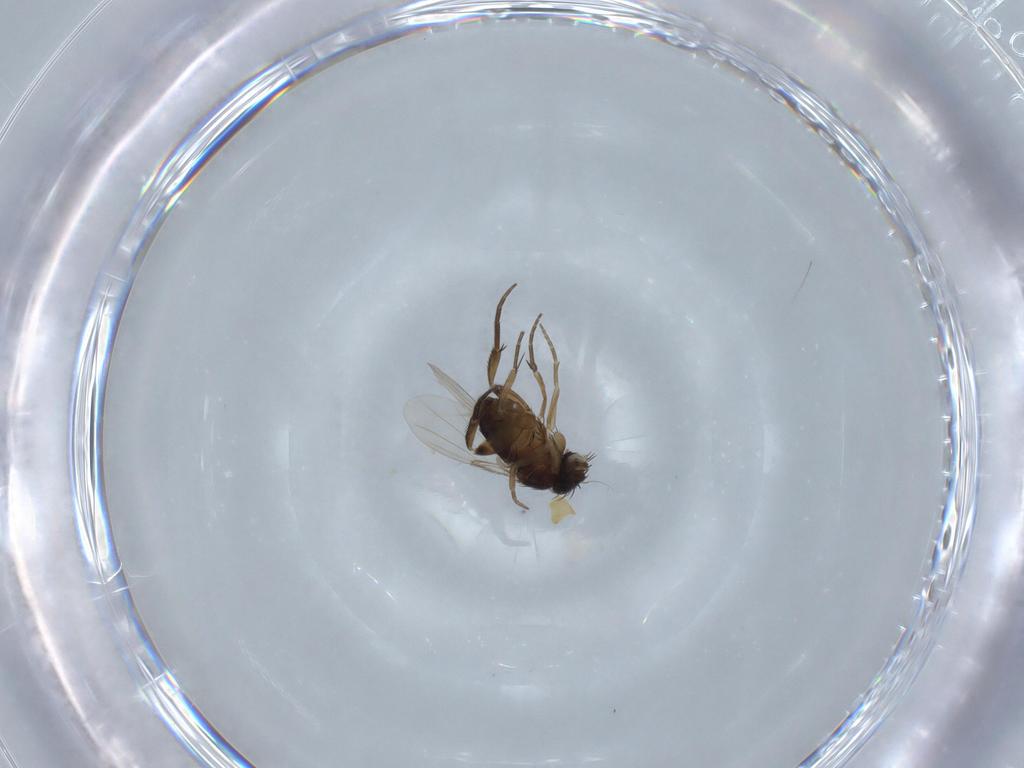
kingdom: Animalia
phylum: Arthropoda
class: Insecta
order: Diptera
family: Phoridae
